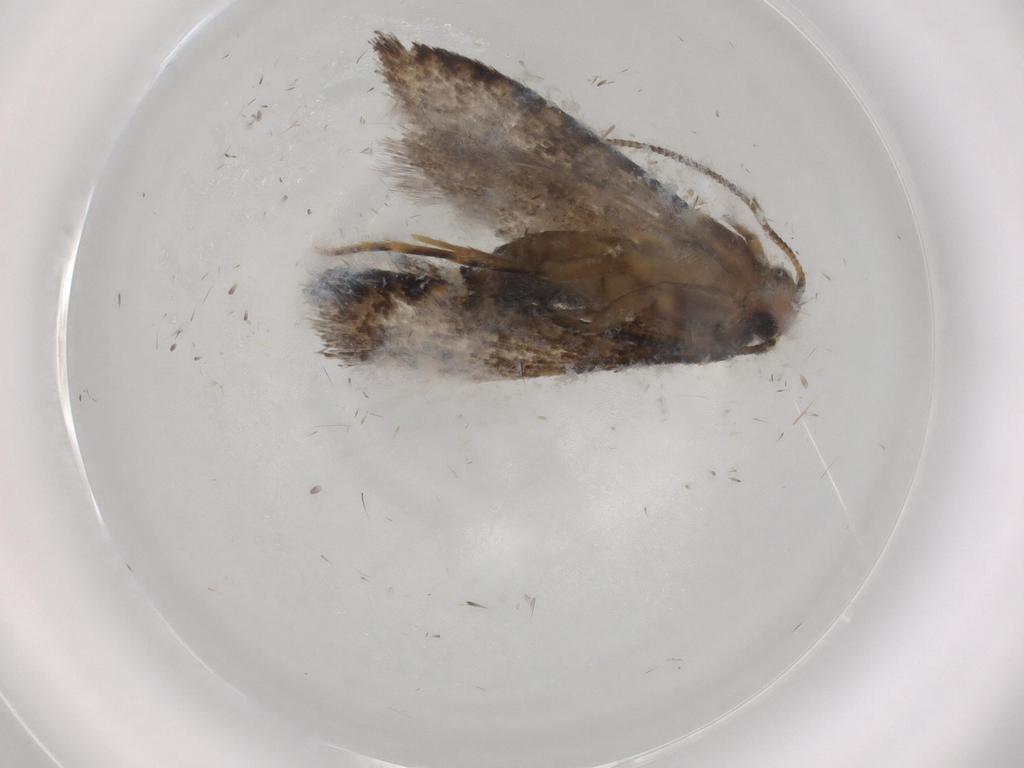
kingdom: Animalia
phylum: Arthropoda
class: Insecta
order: Lepidoptera
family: Tineidae
